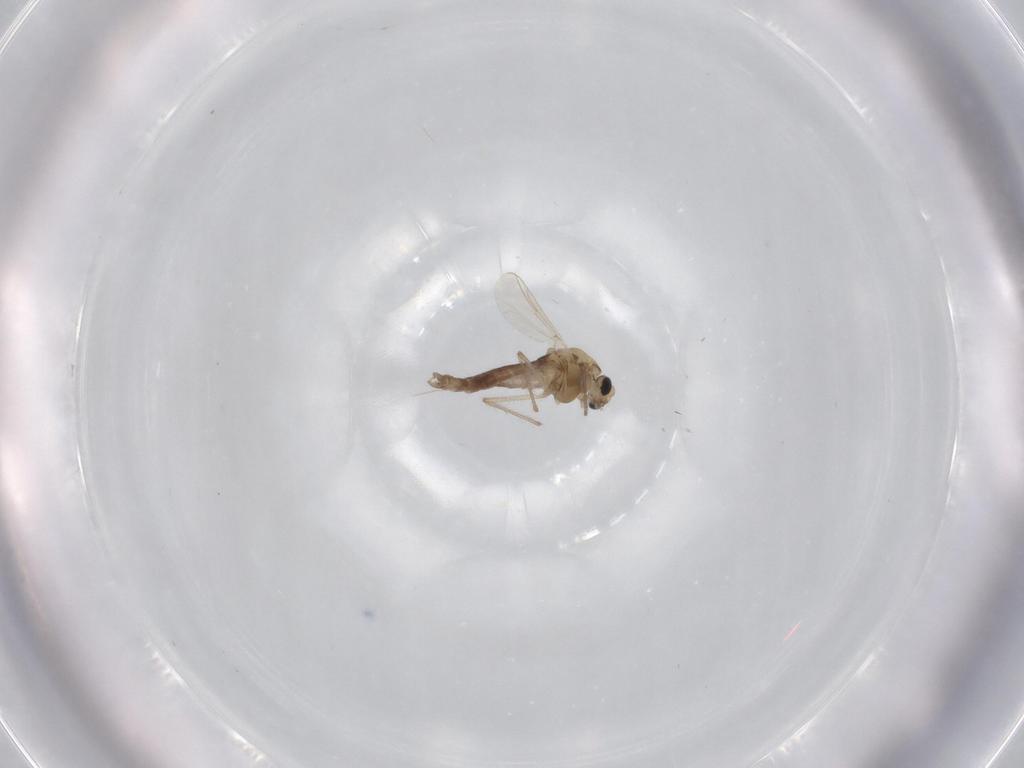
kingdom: Animalia
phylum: Arthropoda
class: Insecta
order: Diptera
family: Chironomidae
